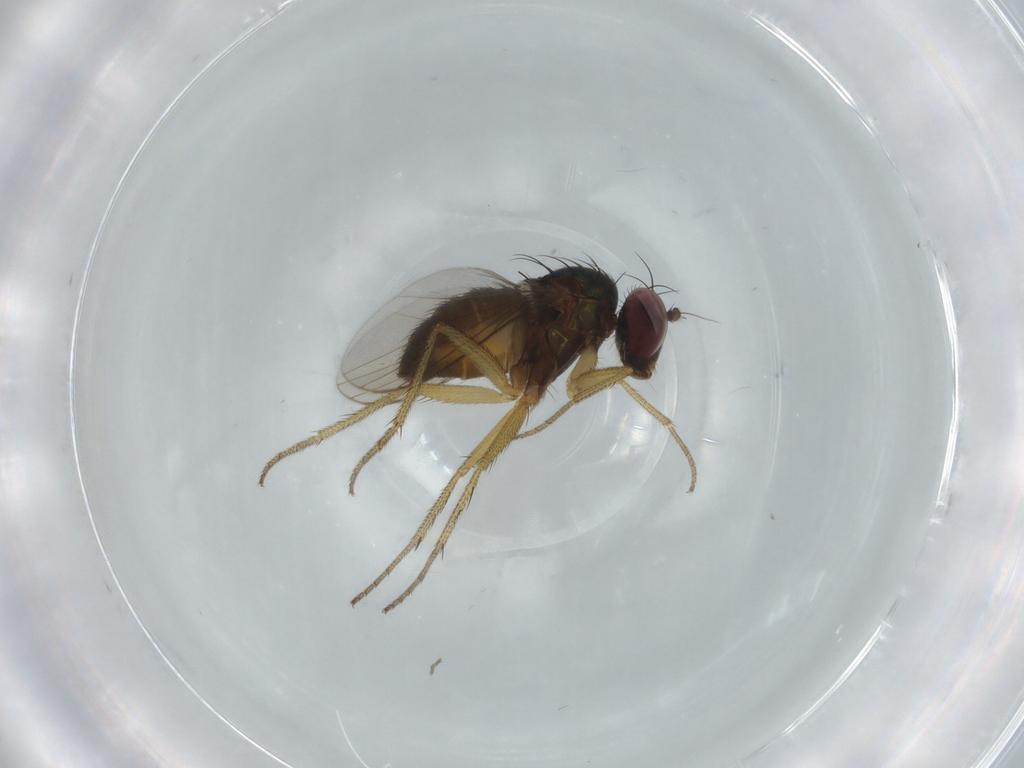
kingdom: Animalia
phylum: Arthropoda
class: Insecta
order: Diptera
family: Dolichopodidae
